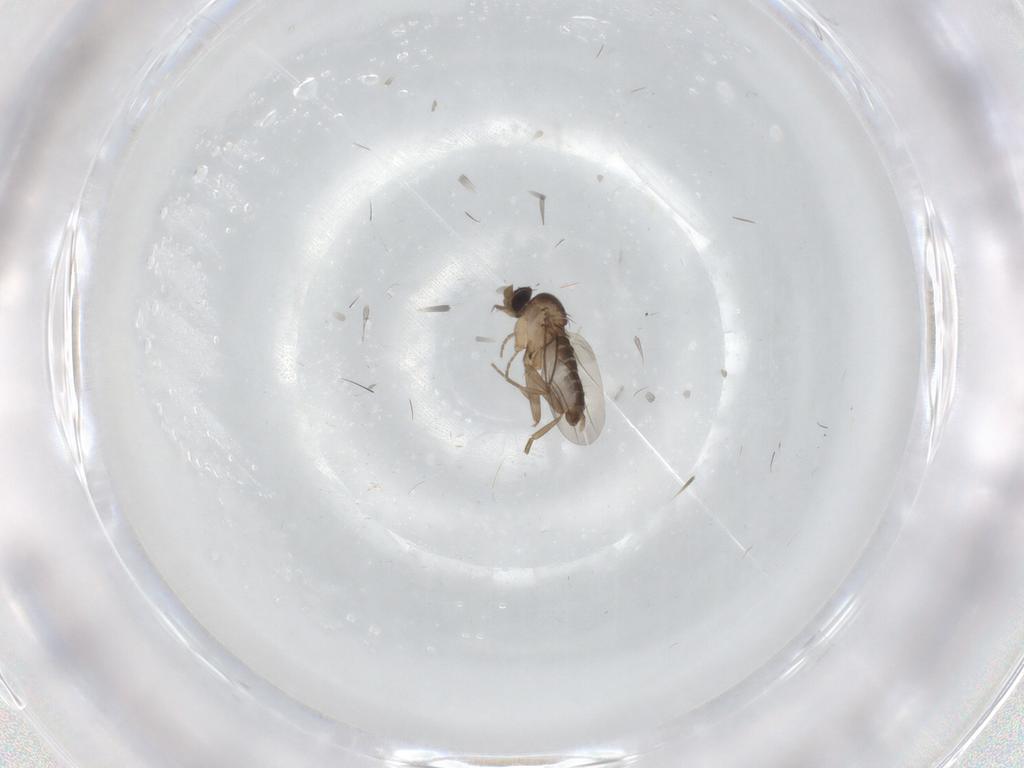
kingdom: Animalia
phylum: Arthropoda
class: Insecta
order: Diptera
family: Phoridae
